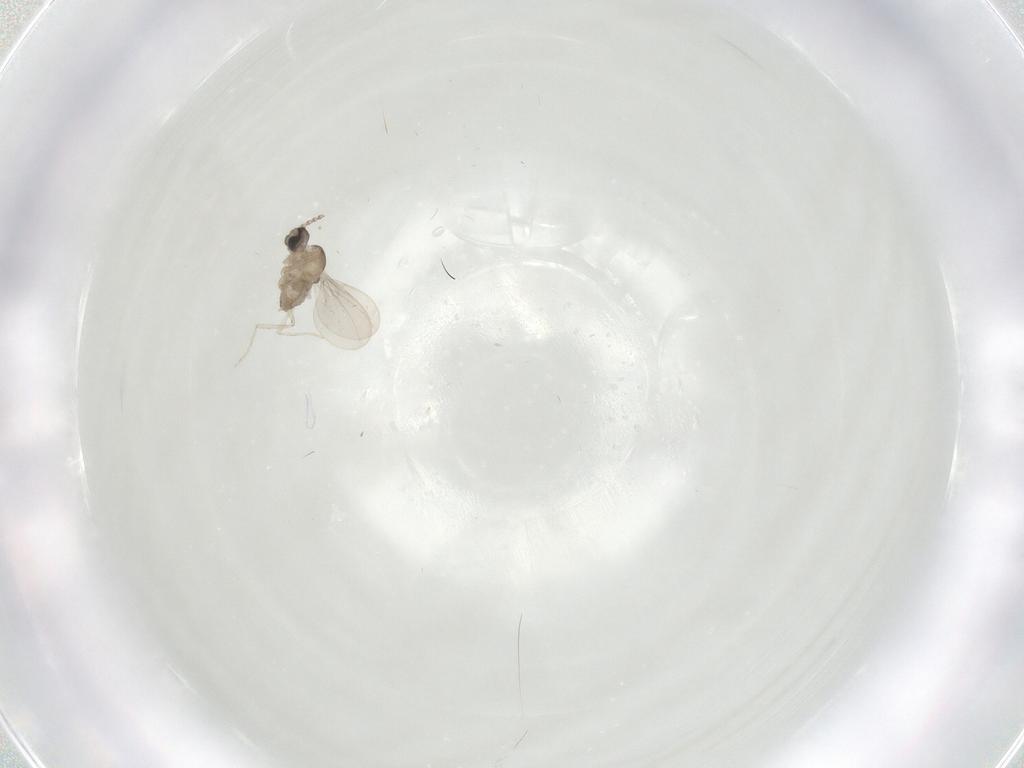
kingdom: Animalia
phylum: Arthropoda
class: Insecta
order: Diptera
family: Cecidomyiidae
